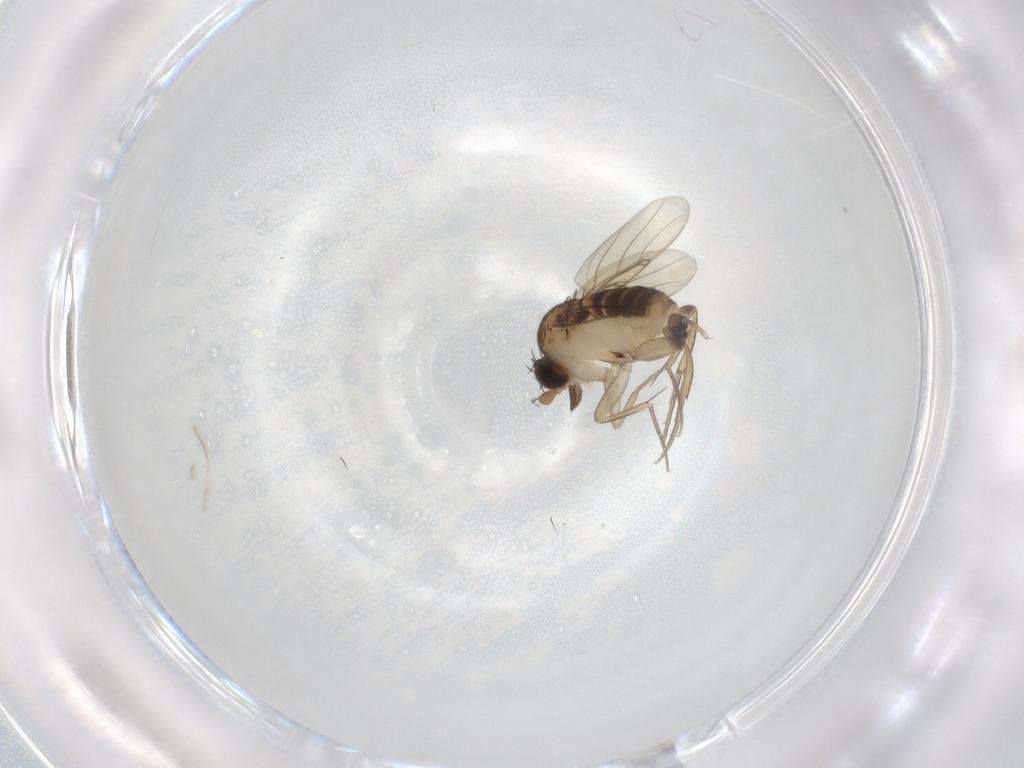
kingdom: Animalia
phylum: Arthropoda
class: Insecta
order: Diptera
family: Phoridae
